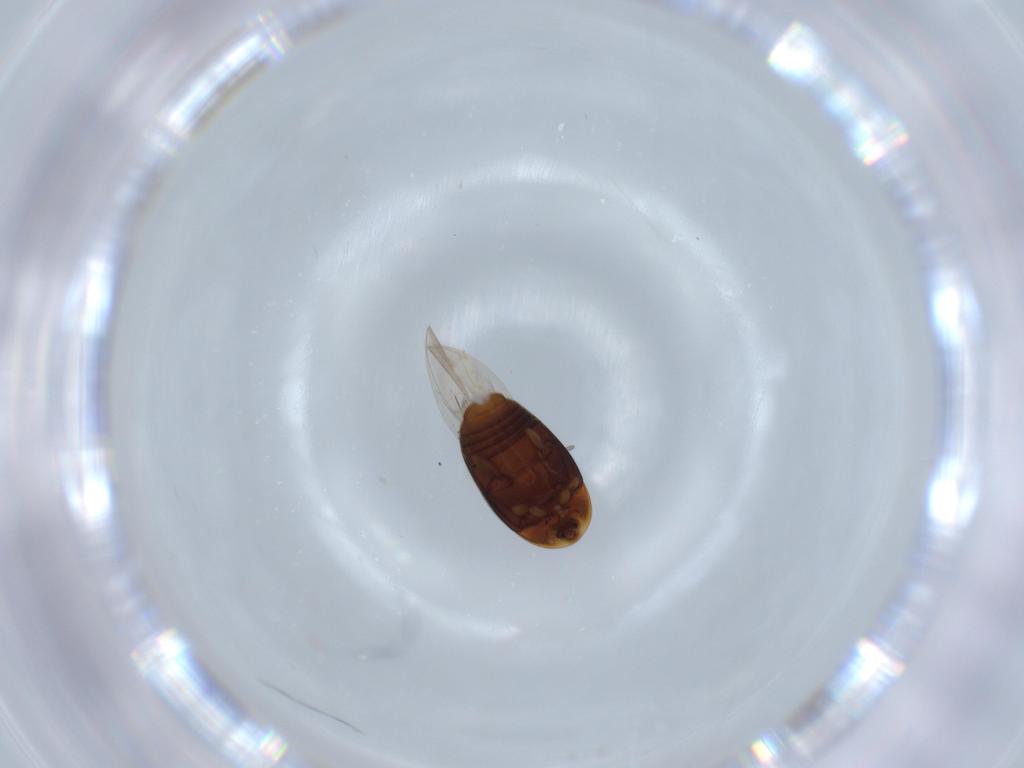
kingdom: Animalia
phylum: Arthropoda
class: Insecta
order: Coleoptera
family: Corylophidae
